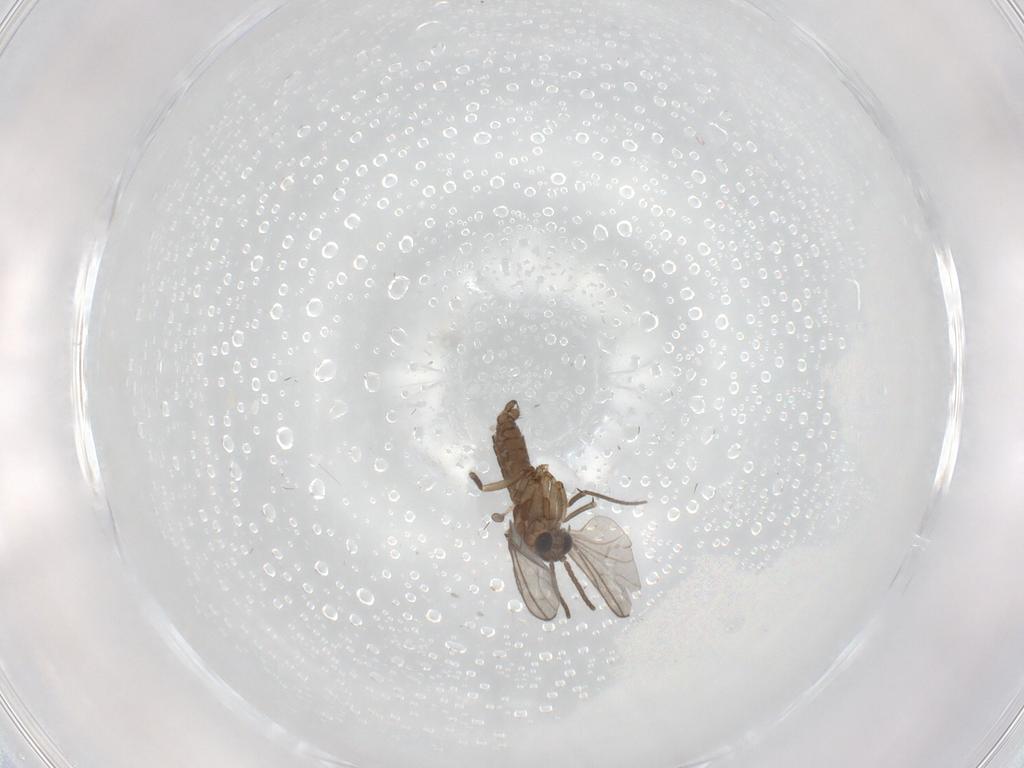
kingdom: Animalia
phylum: Arthropoda
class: Insecta
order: Diptera
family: Sciaridae
